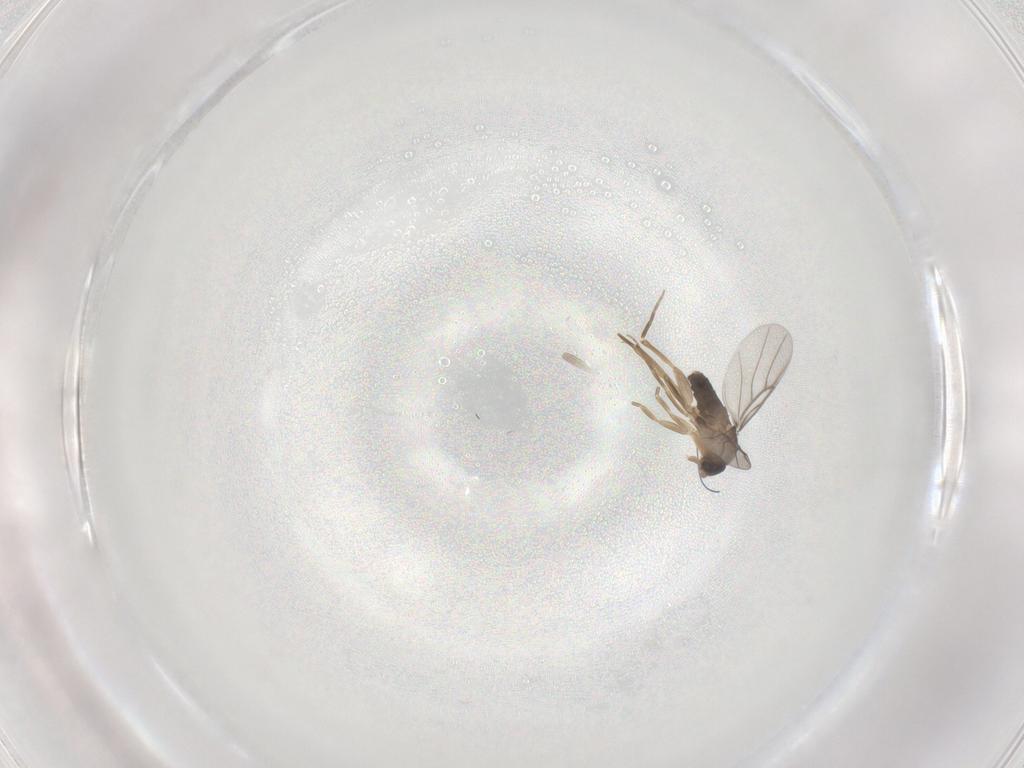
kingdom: Animalia
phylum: Arthropoda
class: Insecta
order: Diptera
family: Phoridae
